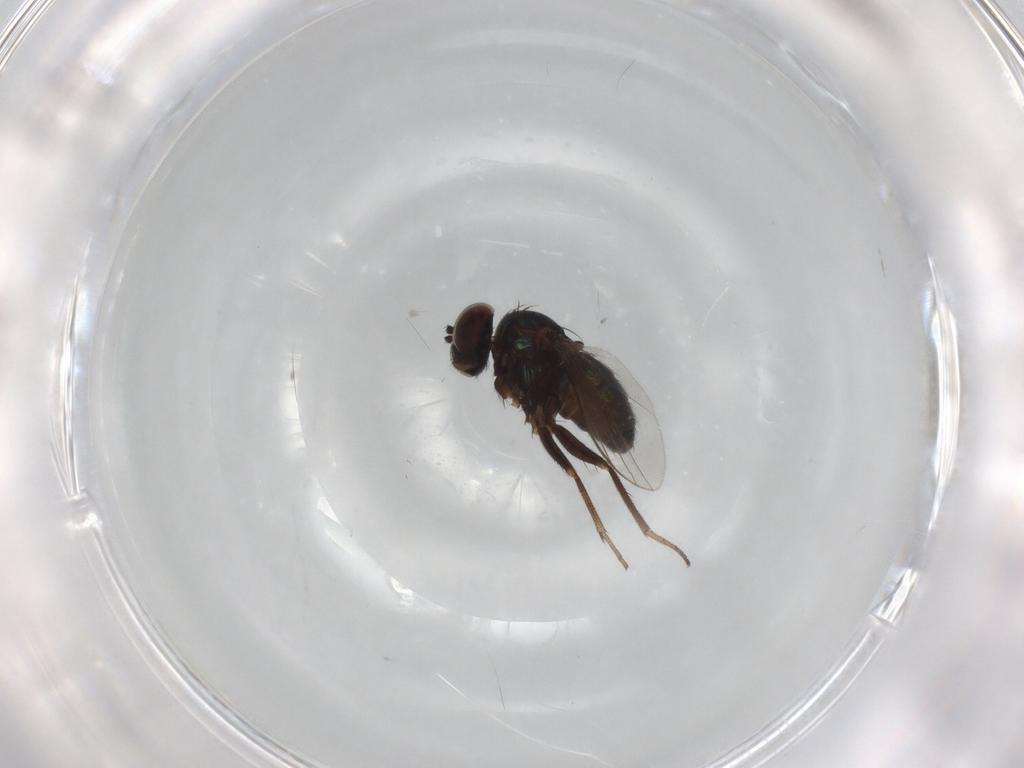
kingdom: Animalia
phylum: Arthropoda
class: Insecta
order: Diptera
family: Dolichopodidae
